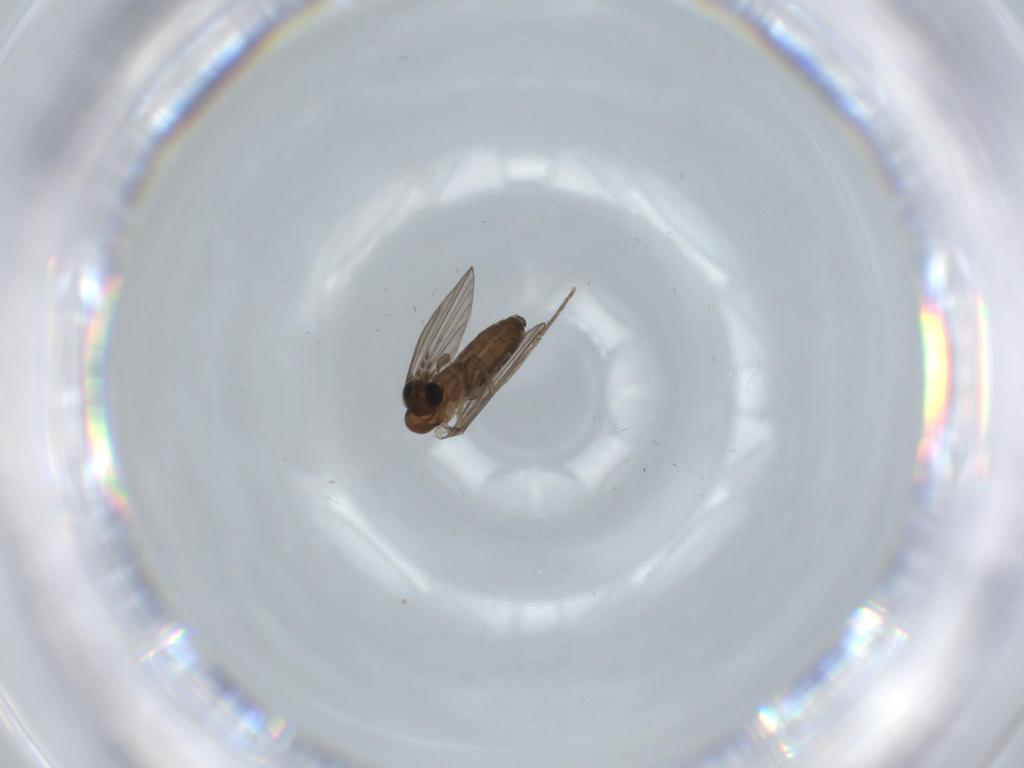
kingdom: Animalia
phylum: Arthropoda
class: Insecta
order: Diptera
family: Psychodidae
